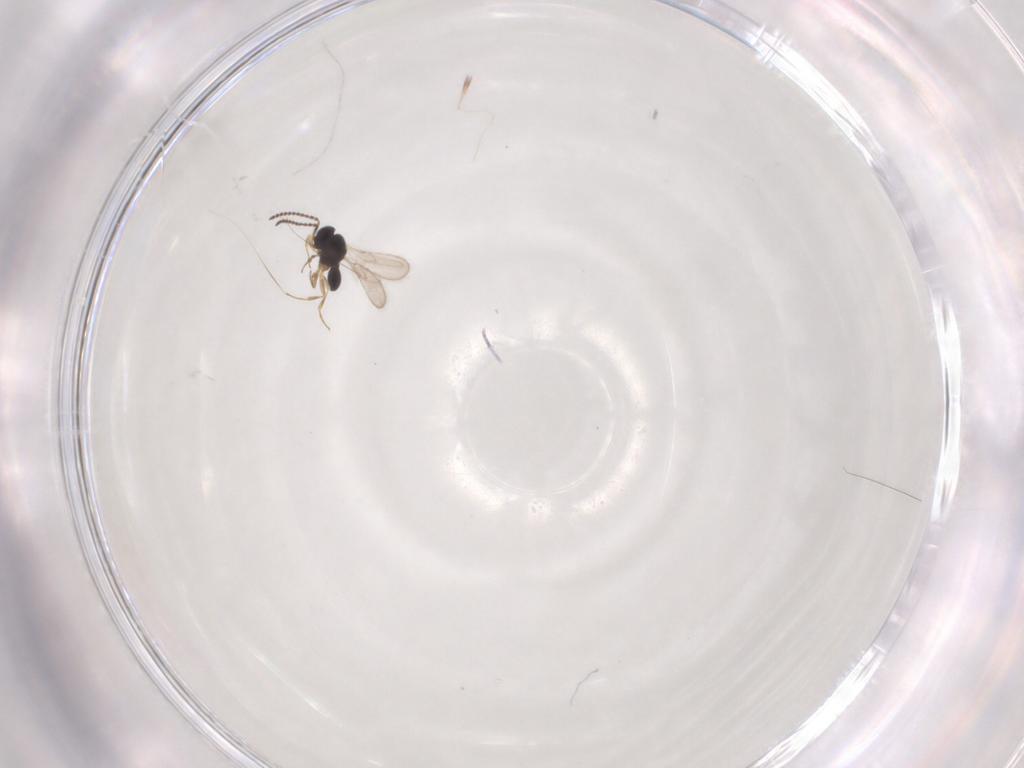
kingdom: Animalia
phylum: Arthropoda
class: Insecta
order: Hymenoptera
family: Scelionidae
